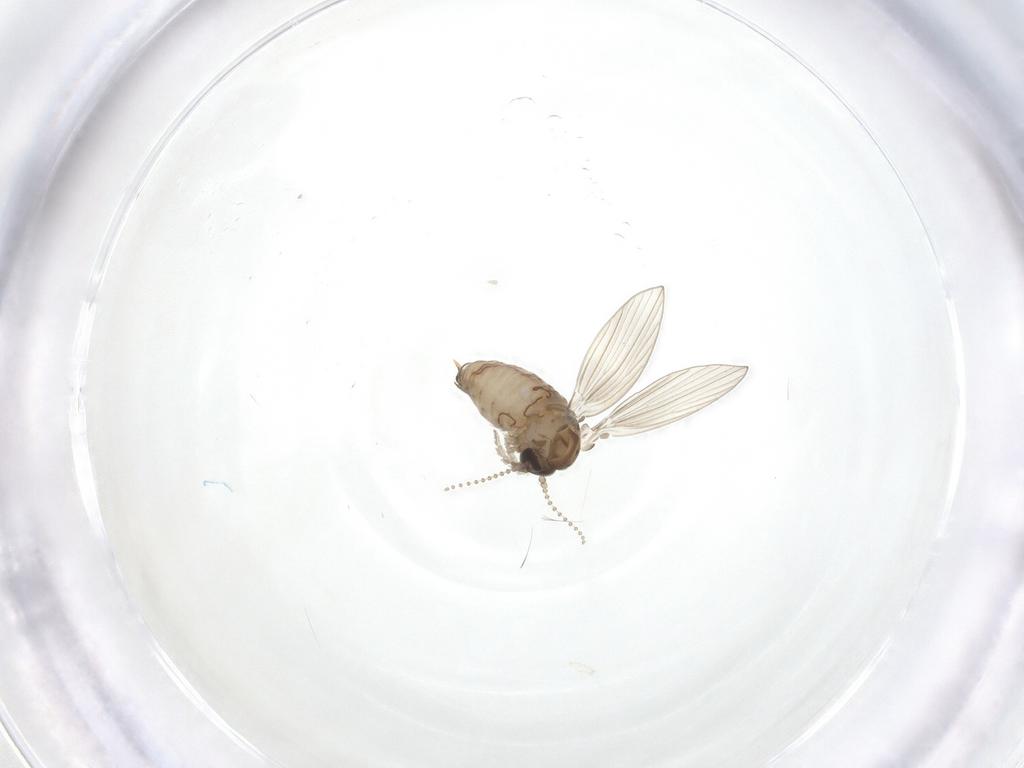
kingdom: Animalia
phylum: Arthropoda
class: Insecta
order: Diptera
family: Psychodidae
